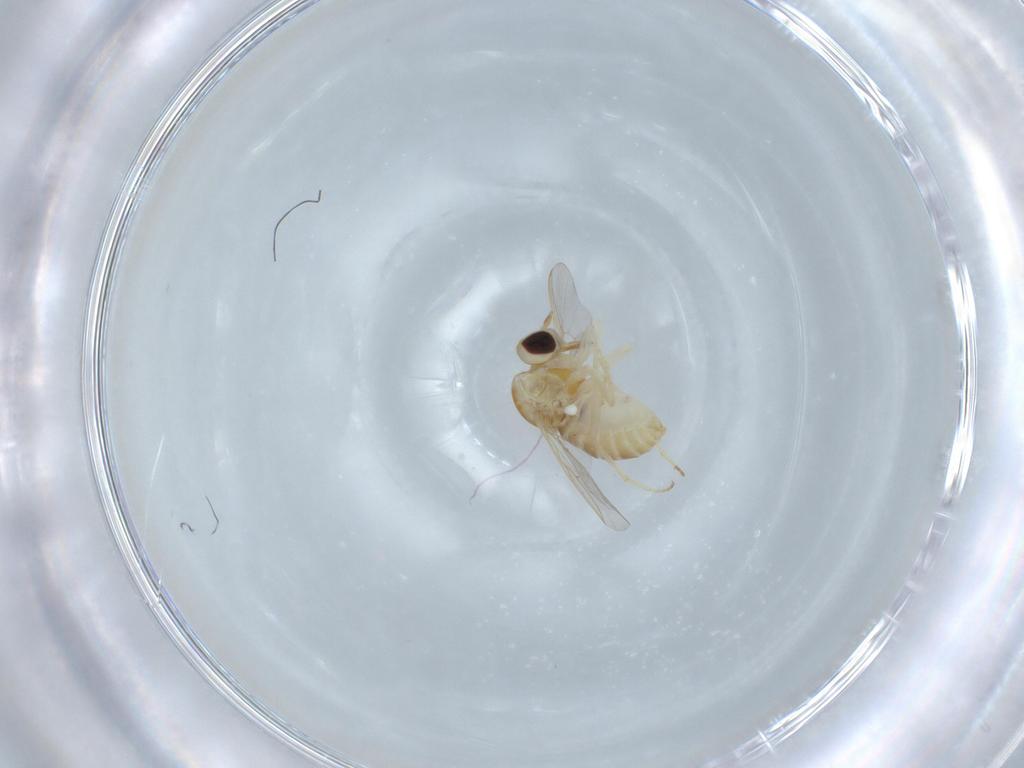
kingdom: Animalia
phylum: Arthropoda
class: Insecta
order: Diptera
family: Mythicomyiidae
